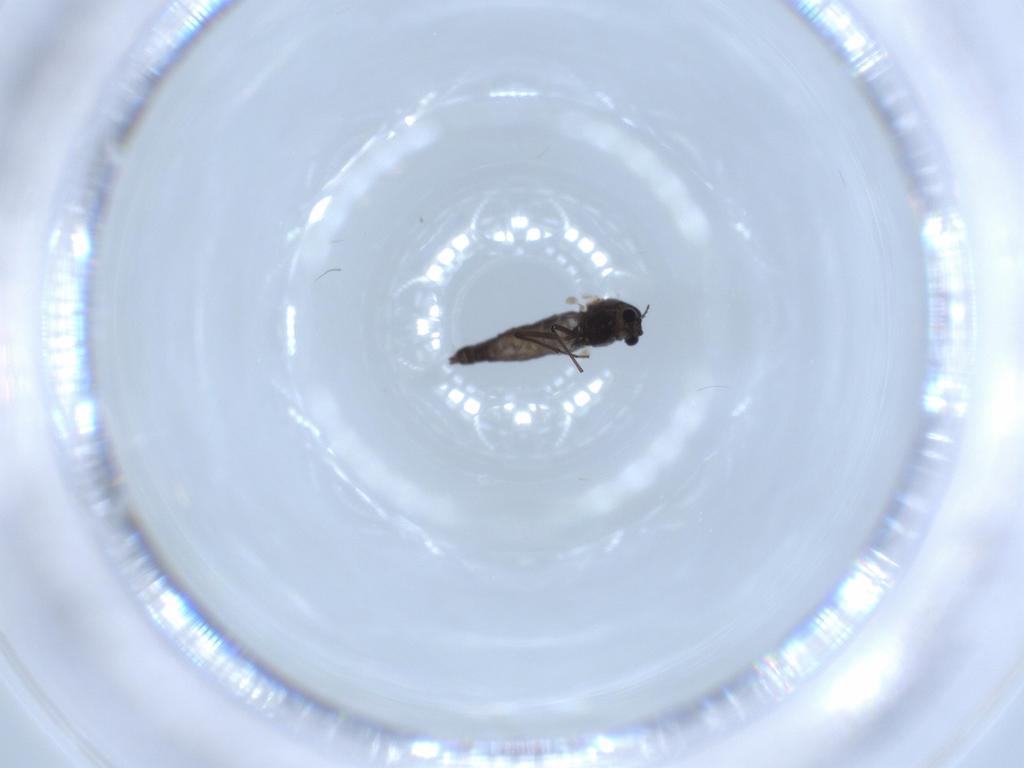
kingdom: Animalia
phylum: Arthropoda
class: Insecta
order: Diptera
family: Chironomidae
